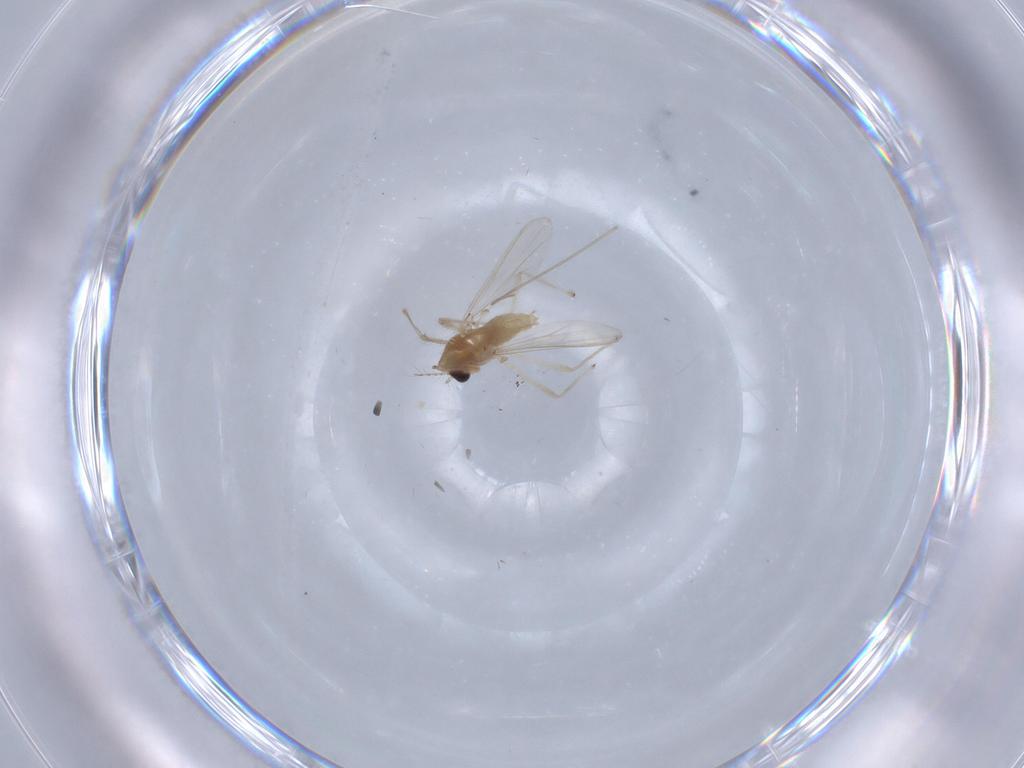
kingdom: Animalia
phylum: Arthropoda
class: Insecta
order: Diptera
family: Chironomidae
